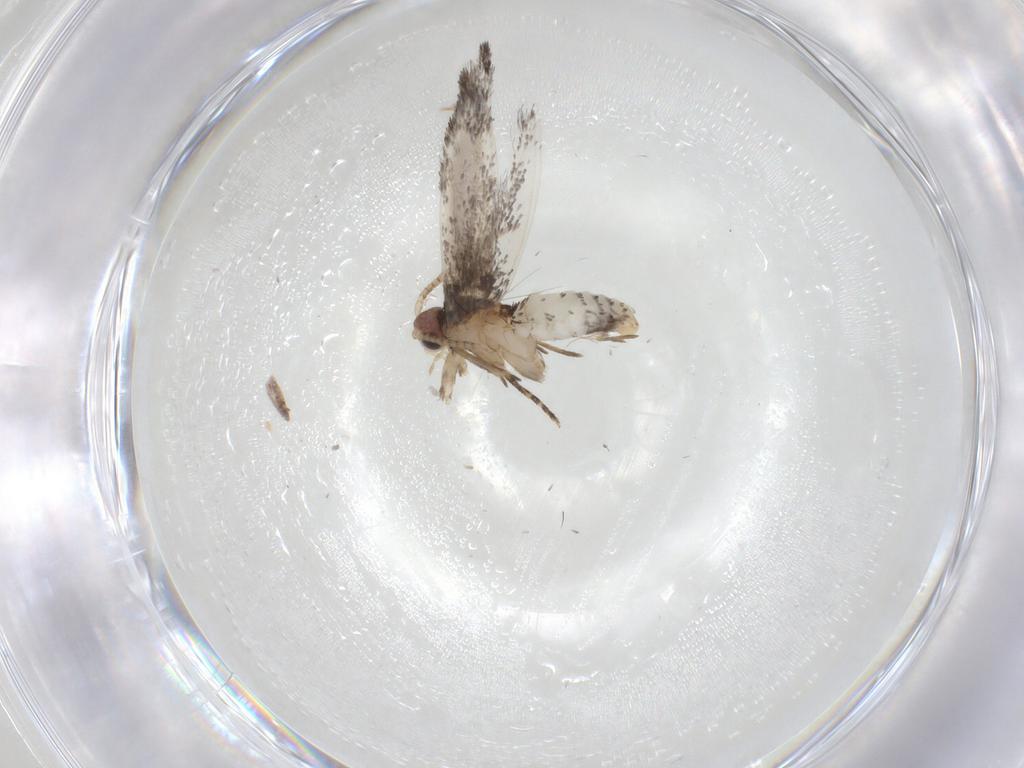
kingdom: Animalia
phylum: Arthropoda
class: Insecta
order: Lepidoptera
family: Tineidae
